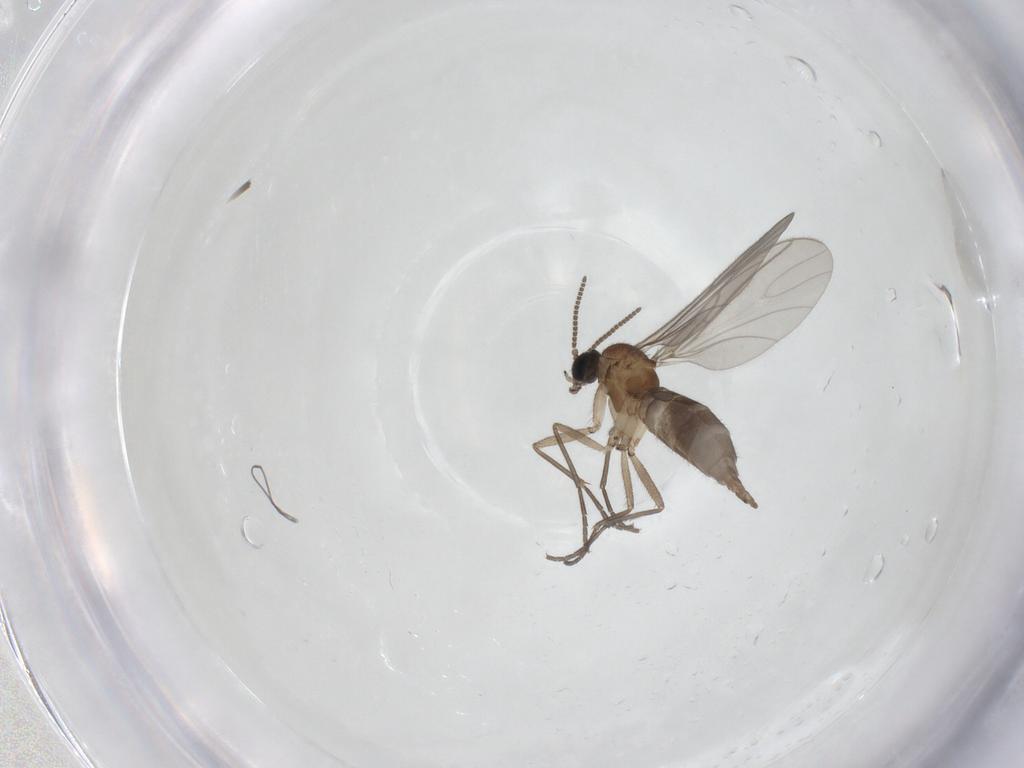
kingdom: Animalia
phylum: Arthropoda
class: Insecta
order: Diptera
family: Sciaridae
